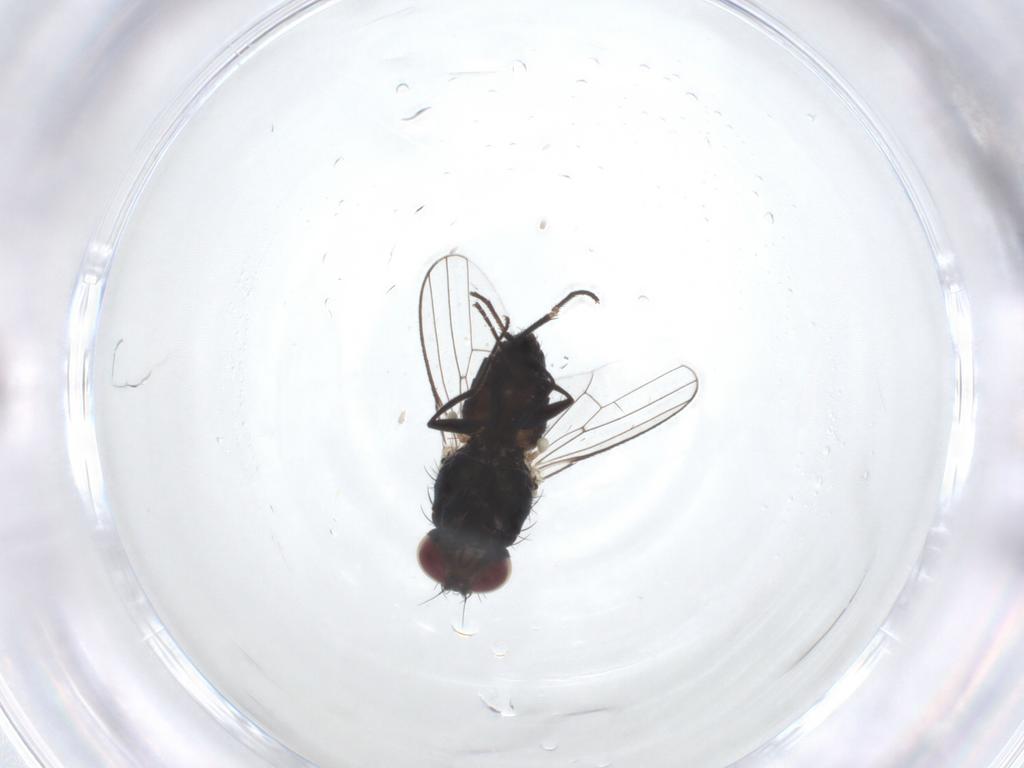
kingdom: Animalia
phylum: Arthropoda
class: Insecta
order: Diptera
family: Carnidae
